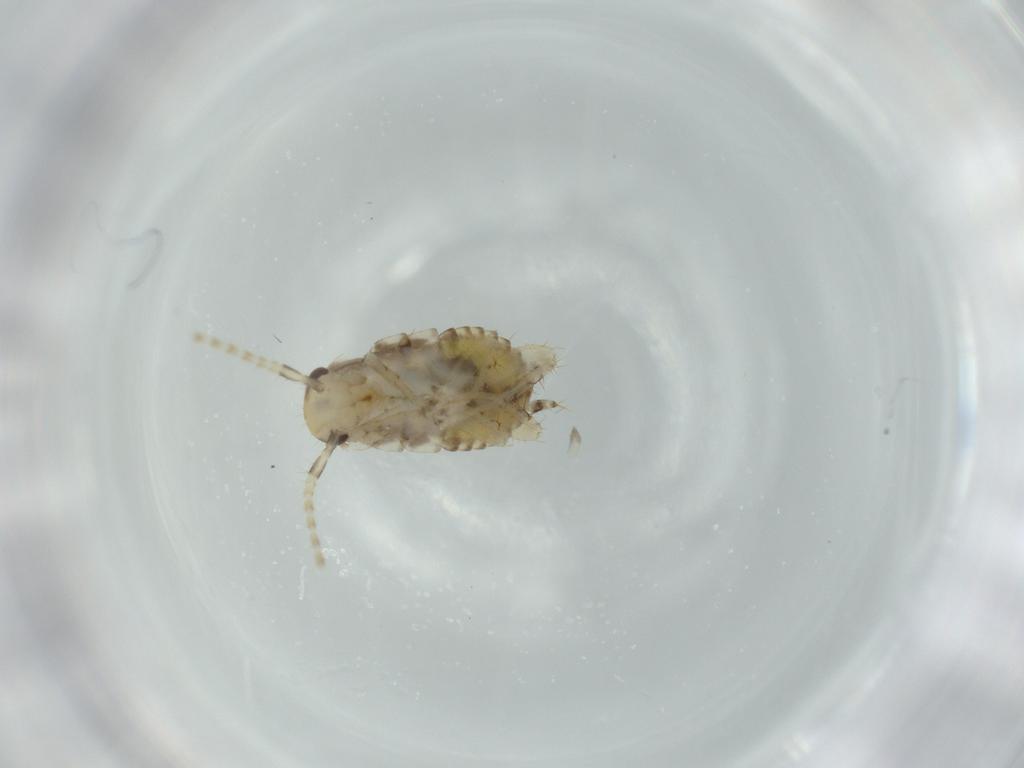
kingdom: Animalia
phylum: Arthropoda
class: Insecta
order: Blattodea
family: Ectobiidae
